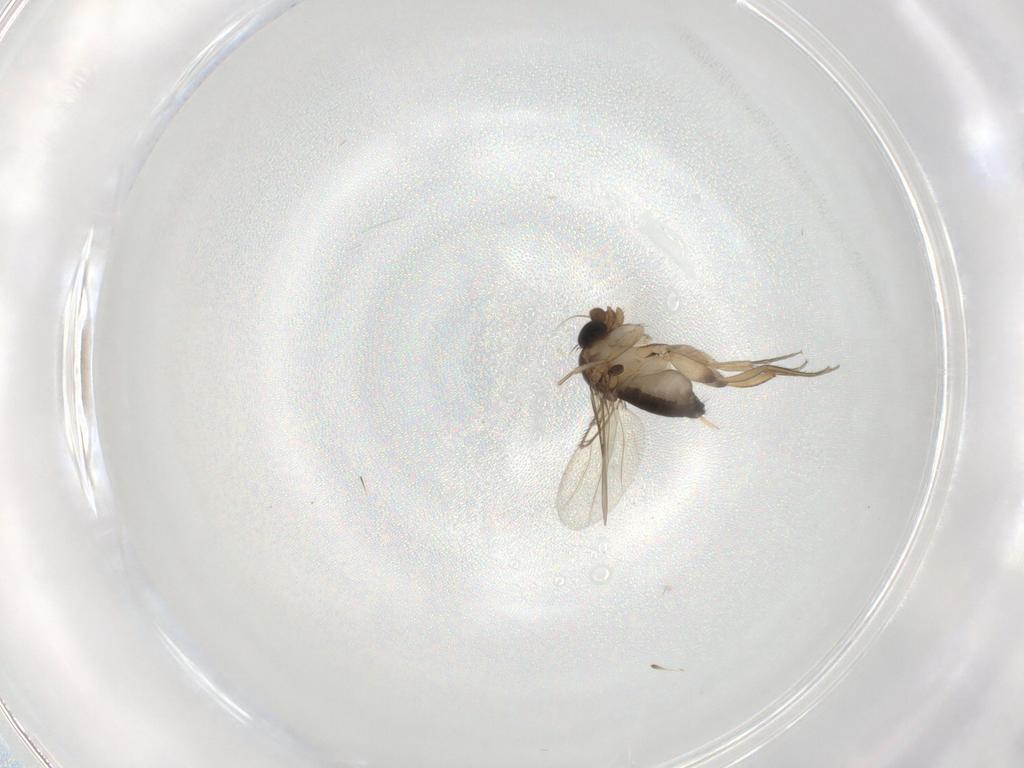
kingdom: Animalia
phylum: Arthropoda
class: Insecta
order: Diptera
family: Phoridae
